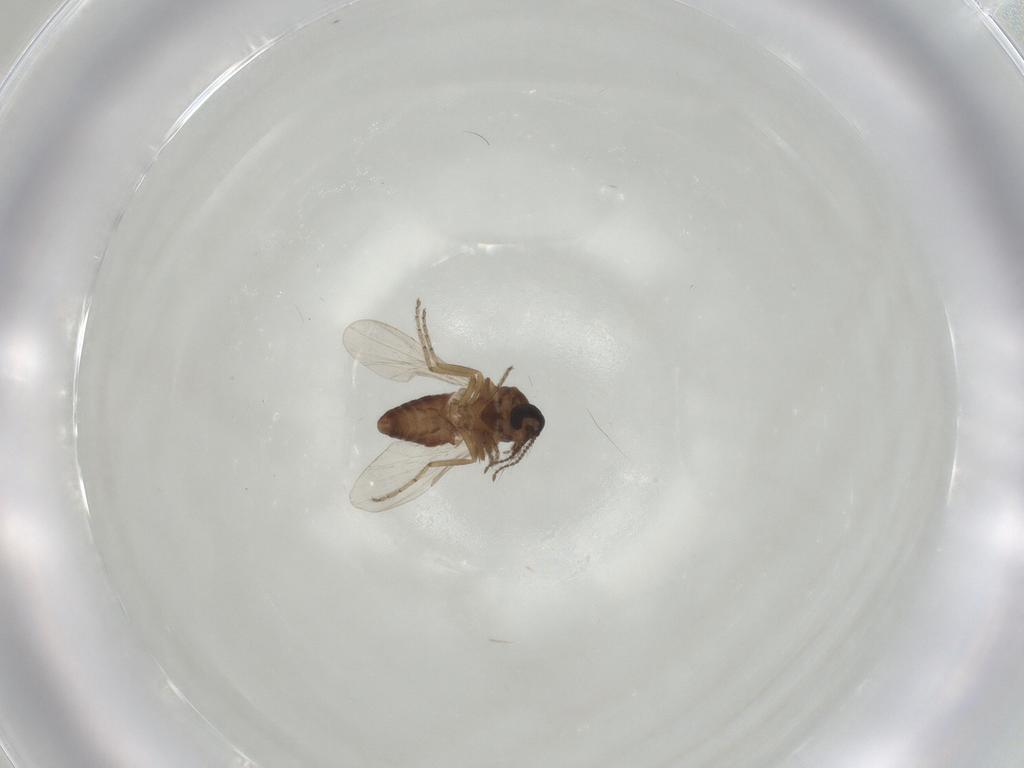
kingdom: Animalia
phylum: Arthropoda
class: Insecta
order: Diptera
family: Ceratopogonidae
